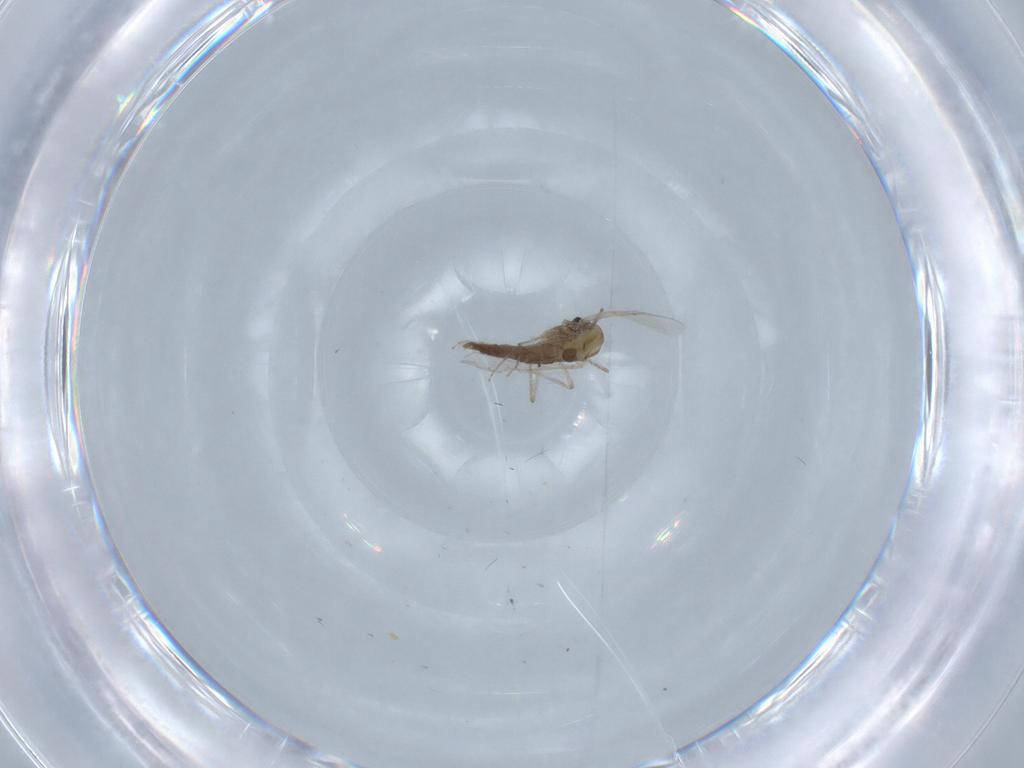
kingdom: Animalia
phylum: Arthropoda
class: Insecta
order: Diptera
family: Chironomidae
